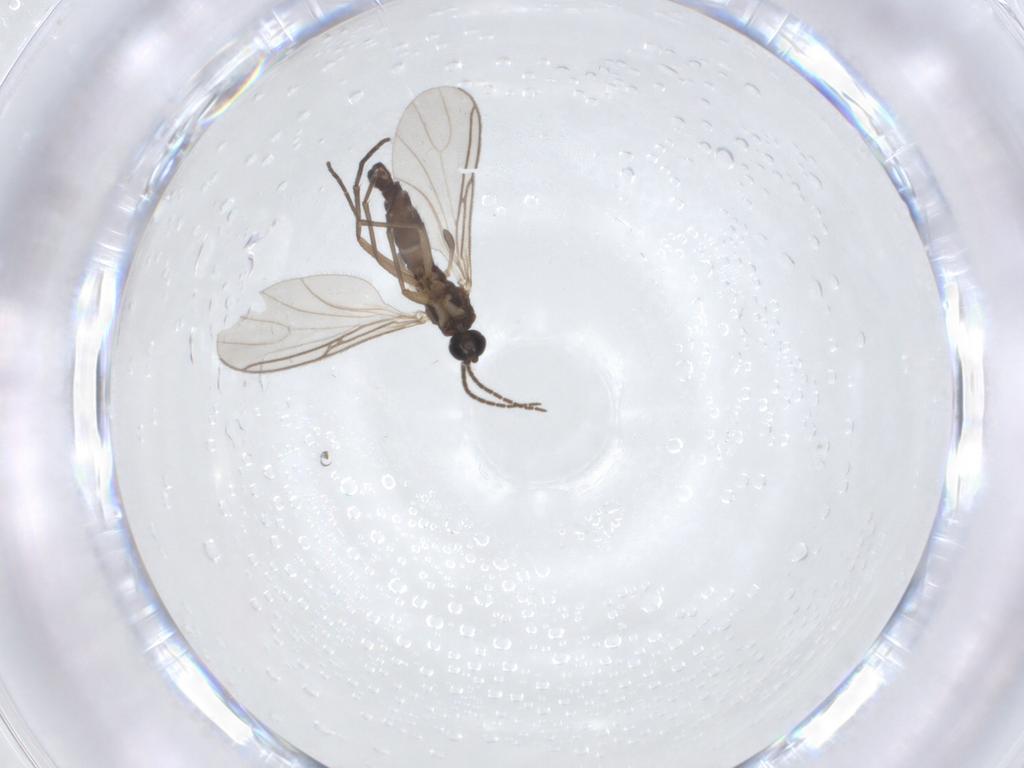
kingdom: Animalia
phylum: Arthropoda
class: Insecta
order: Diptera
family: Sciaridae
